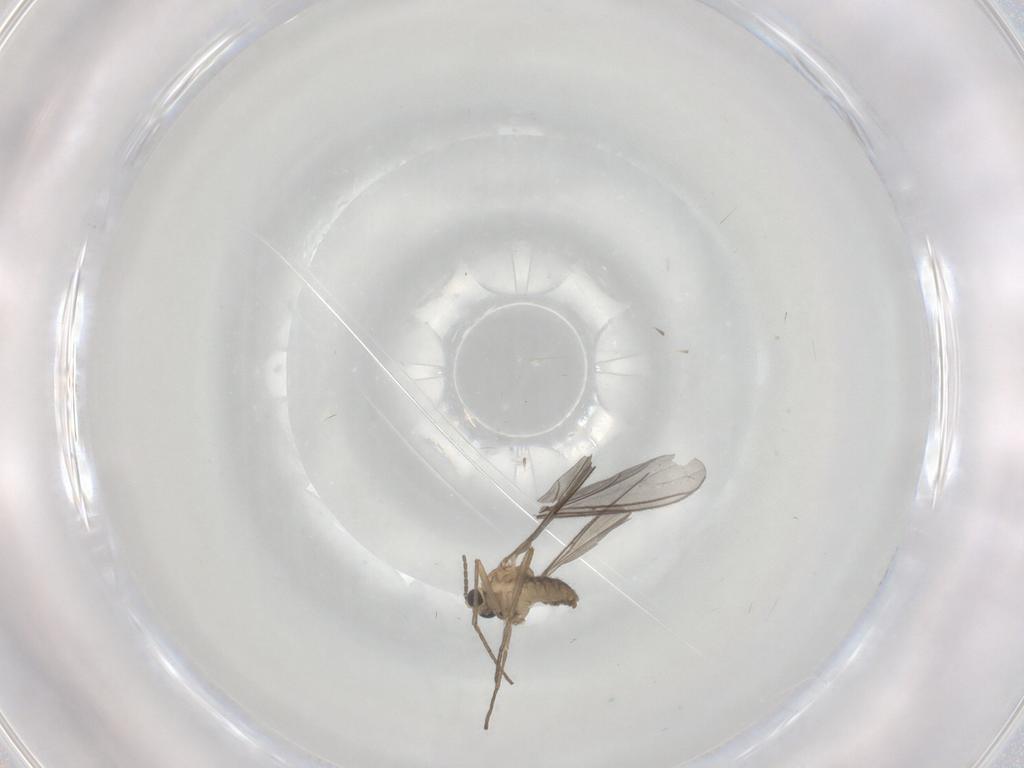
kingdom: Animalia
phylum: Arthropoda
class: Insecta
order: Diptera
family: Sciaridae
